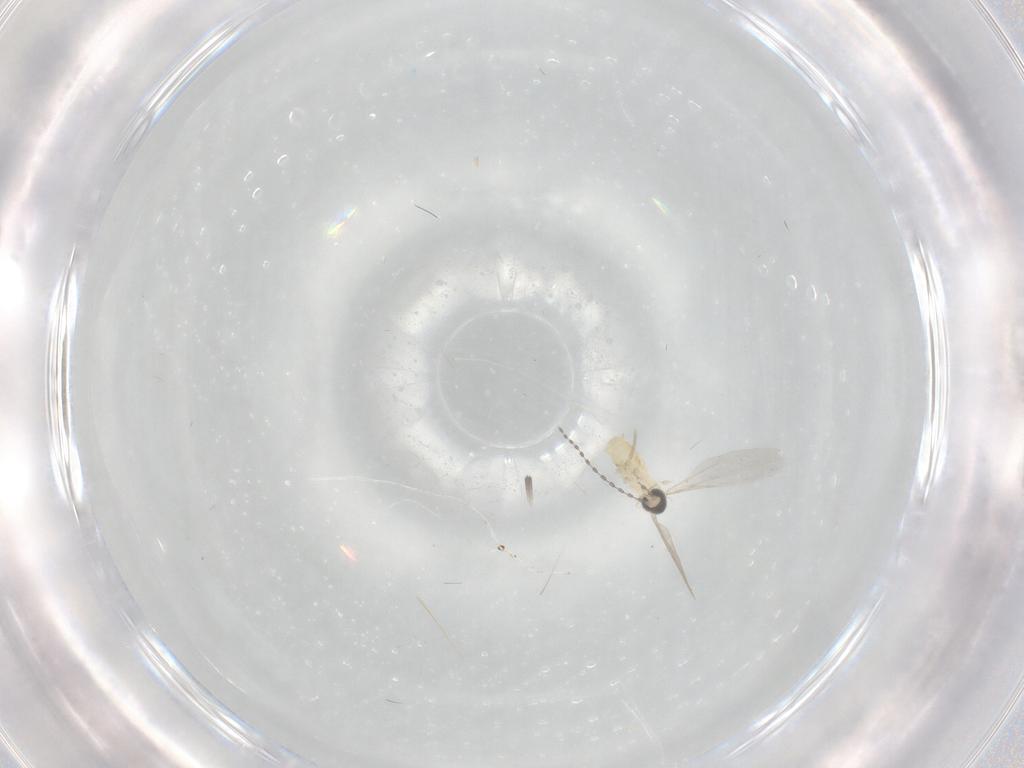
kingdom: Animalia
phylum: Arthropoda
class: Insecta
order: Diptera
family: Cecidomyiidae
